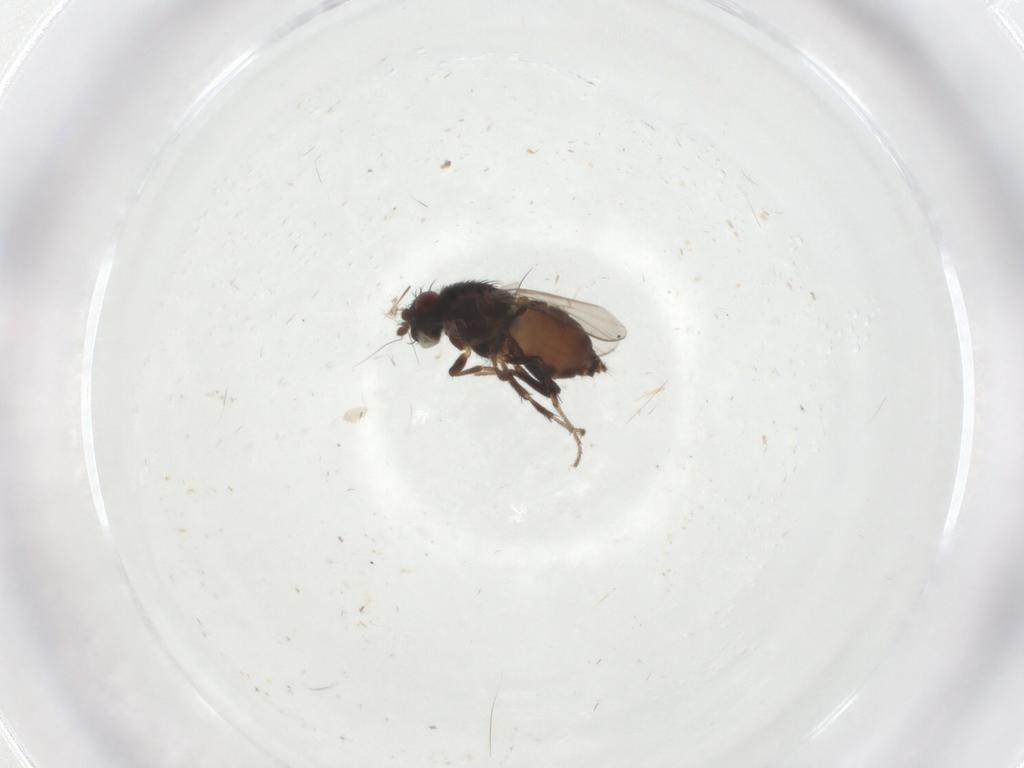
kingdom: Animalia
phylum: Arthropoda
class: Insecta
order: Diptera
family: Sphaeroceridae
